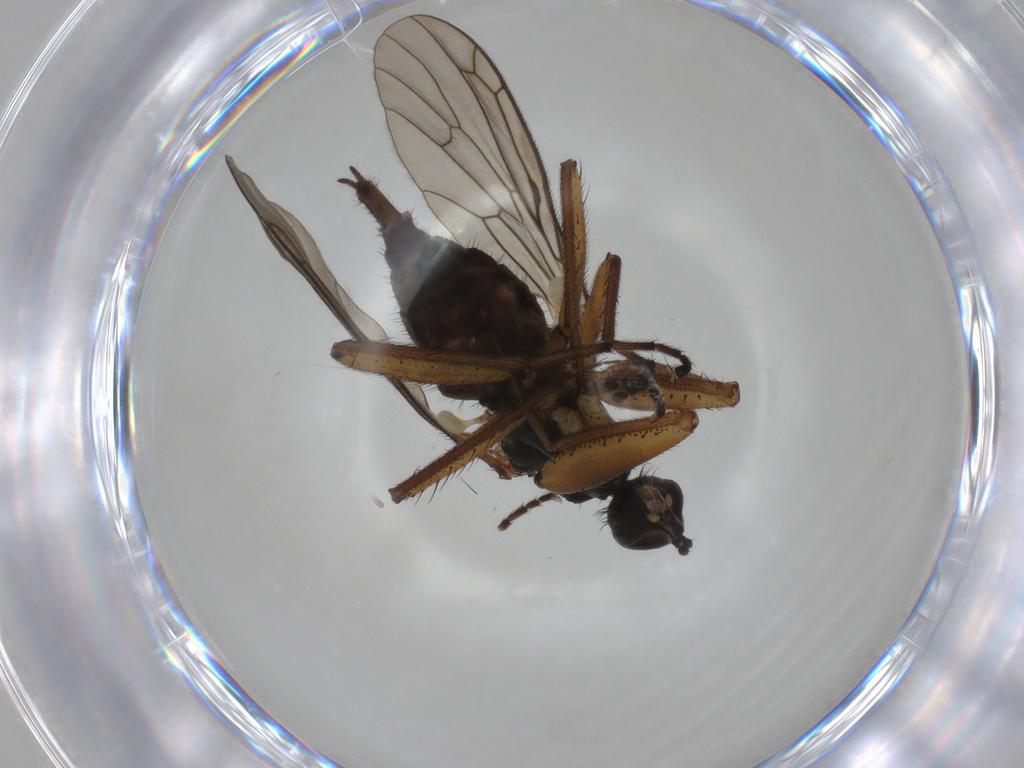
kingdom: Animalia
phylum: Arthropoda
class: Insecta
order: Diptera
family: Chironomidae
